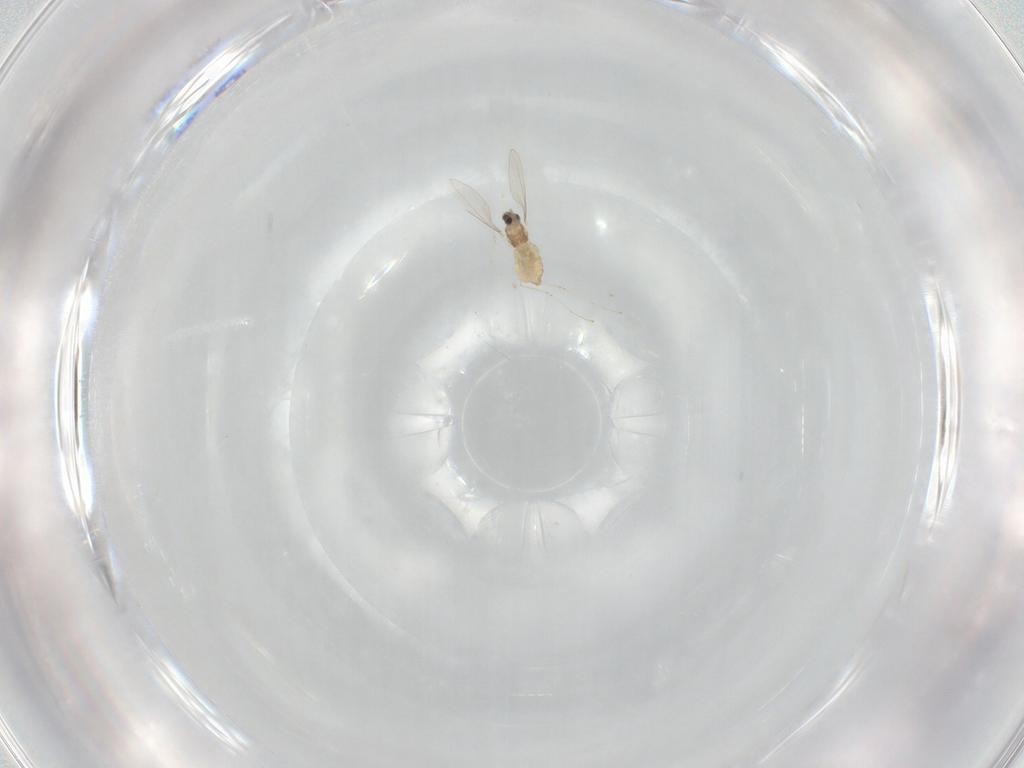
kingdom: Animalia
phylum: Arthropoda
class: Insecta
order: Diptera
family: Cecidomyiidae
